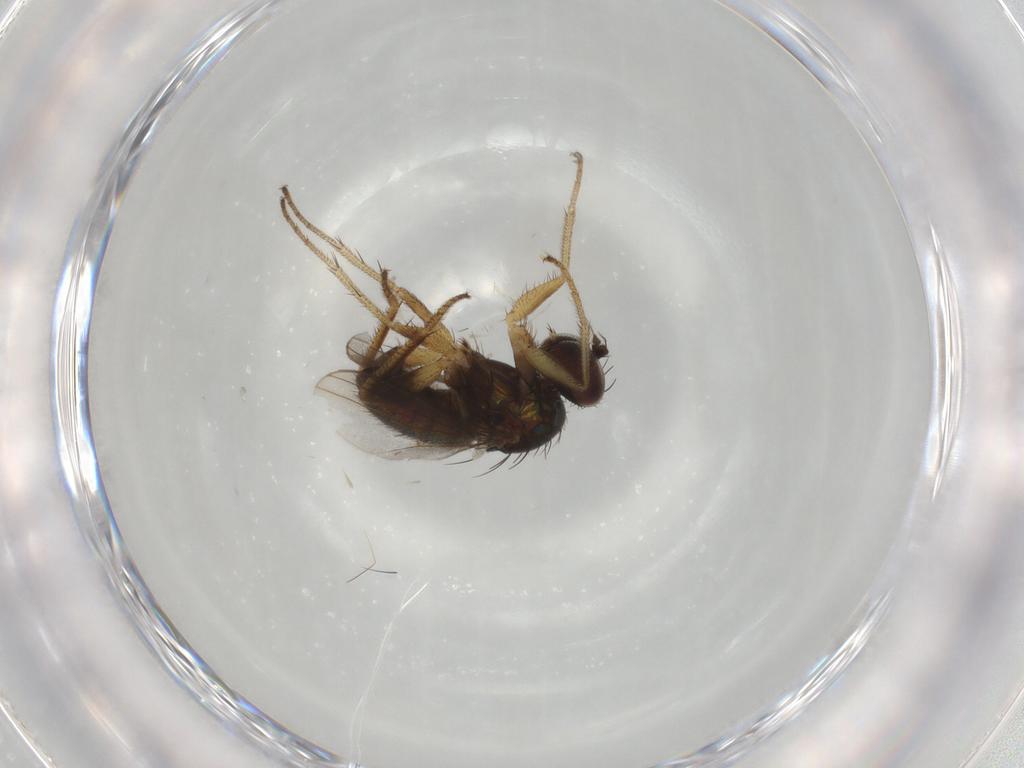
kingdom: Animalia
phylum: Arthropoda
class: Insecta
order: Diptera
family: Dolichopodidae
